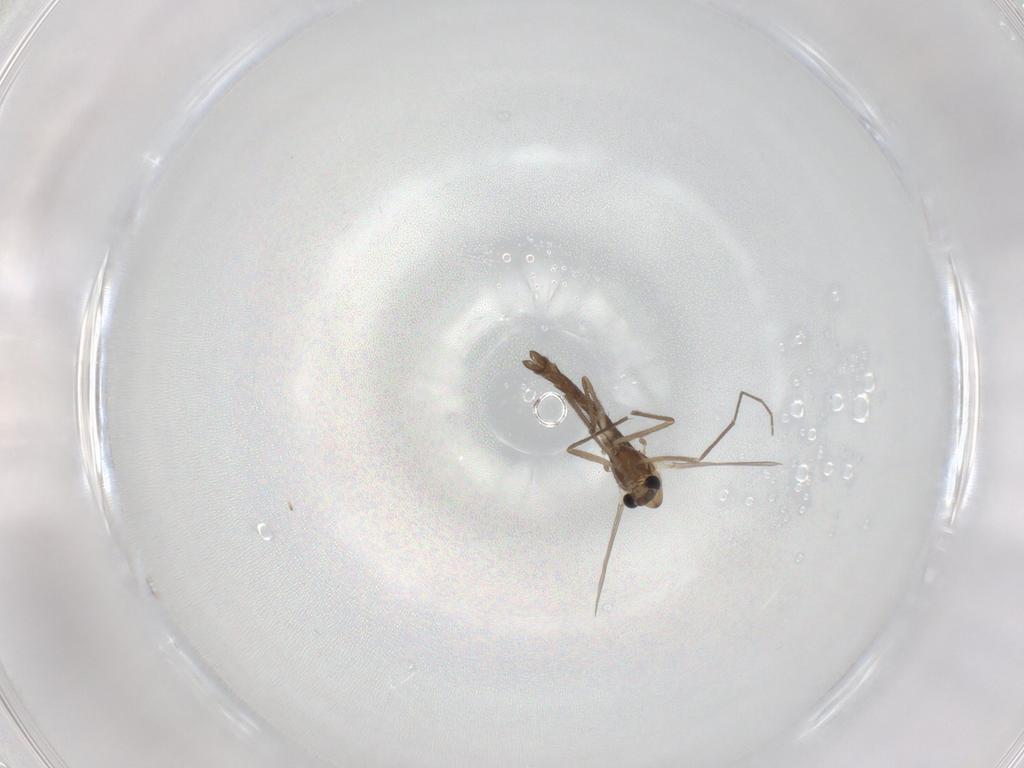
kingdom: Animalia
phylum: Arthropoda
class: Insecta
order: Diptera
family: Chironomidae
